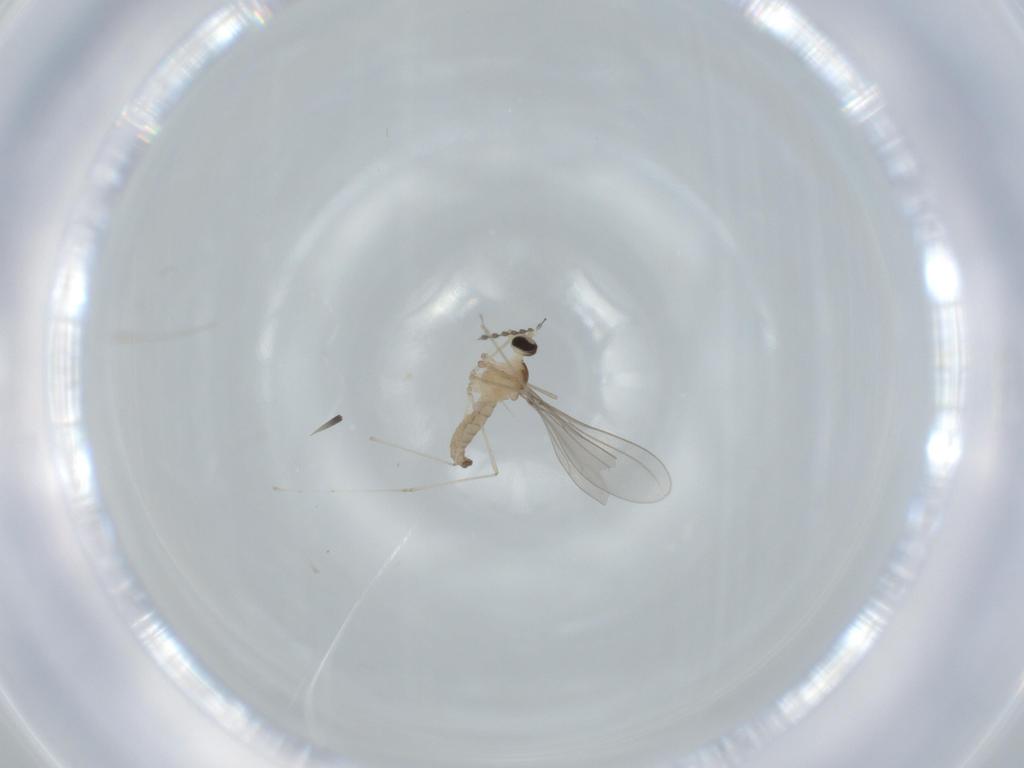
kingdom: Animalia
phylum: Arthropoda
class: Insecta
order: Diptera
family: Cecidomyiidae
